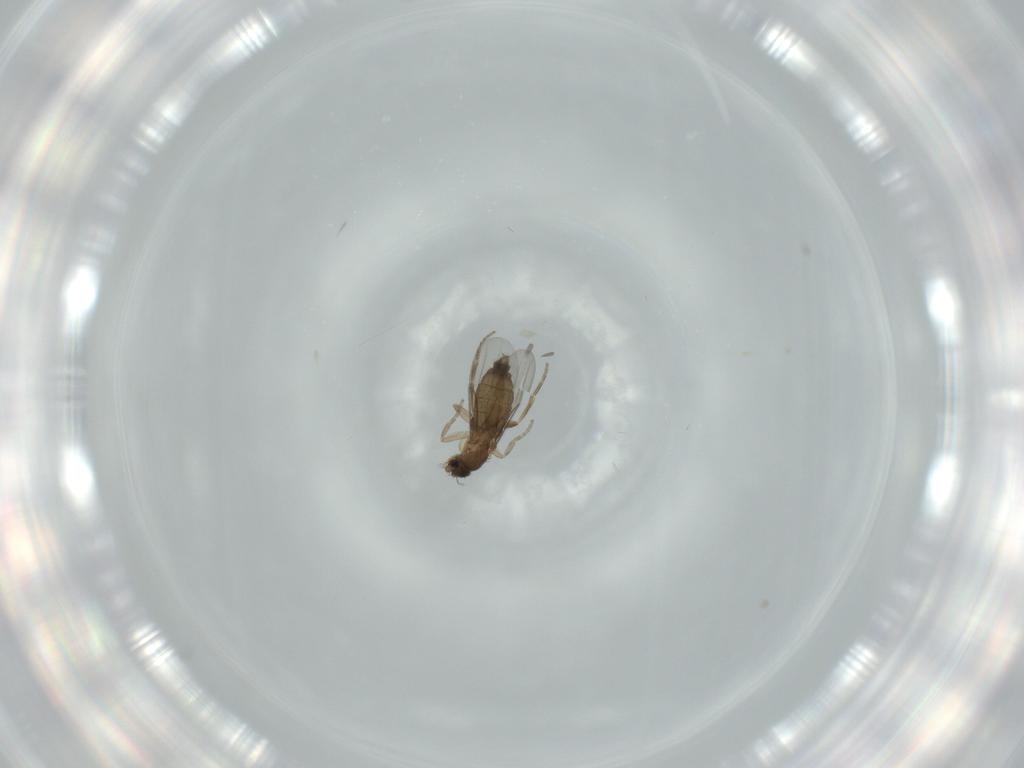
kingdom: Animalia
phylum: Arthropoda
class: Insecta
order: Diptera
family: Phoridae
